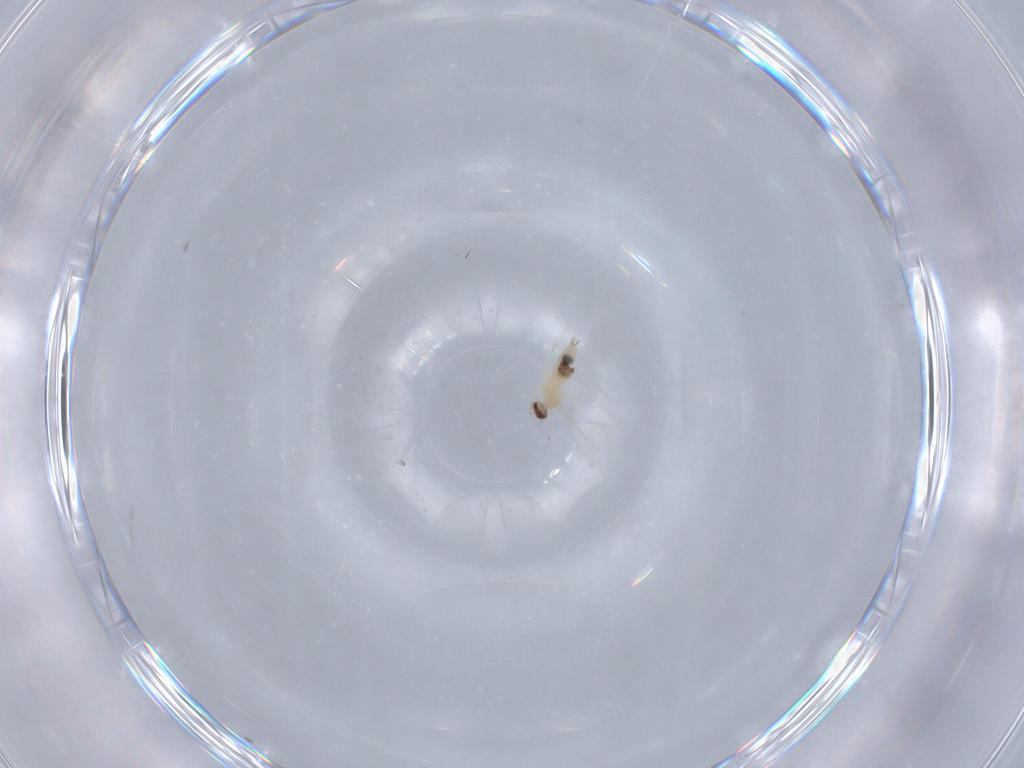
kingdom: Animalia
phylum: Arthropoda
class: Insecta
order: Diptera
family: Cecidomyiidae
